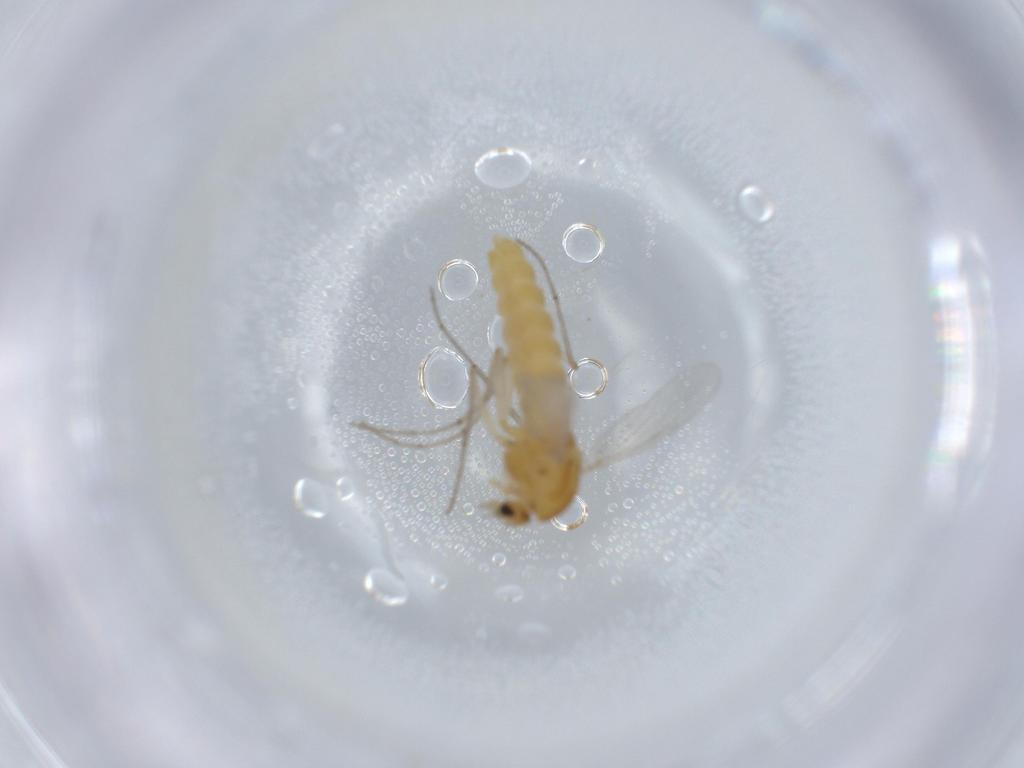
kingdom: Animalia
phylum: Arthropoda
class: Insecta
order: Diptera
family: Chironomidae
